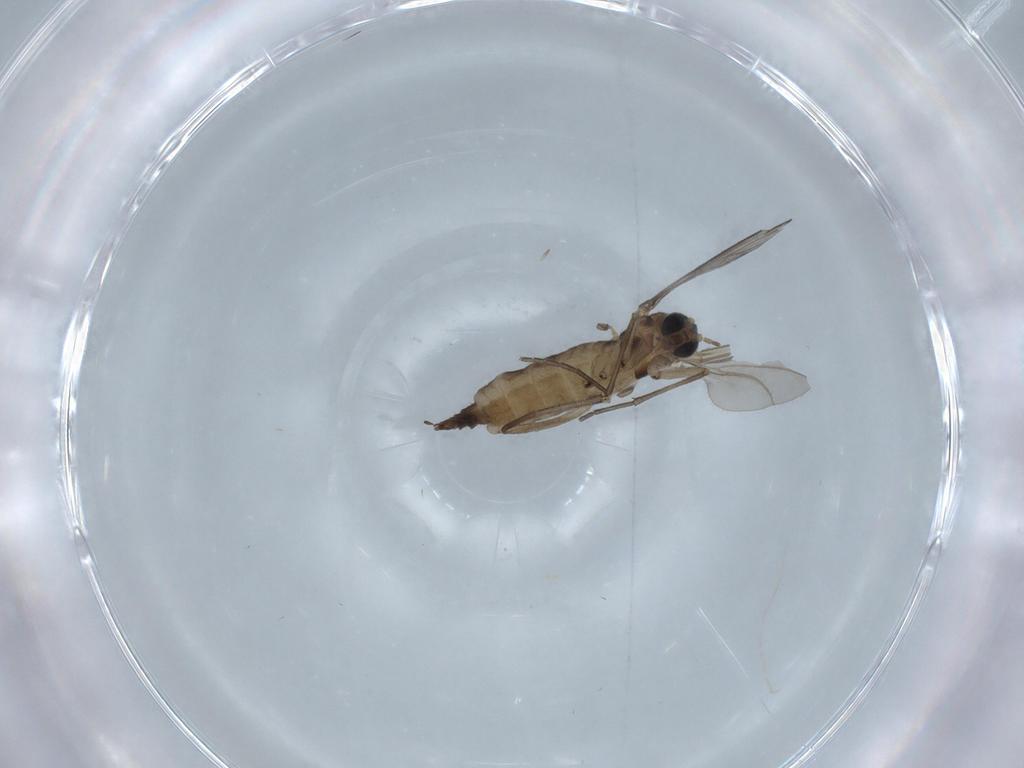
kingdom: Animalia
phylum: Arthropoda
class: Insecta
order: Diptera
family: Sciaridae
